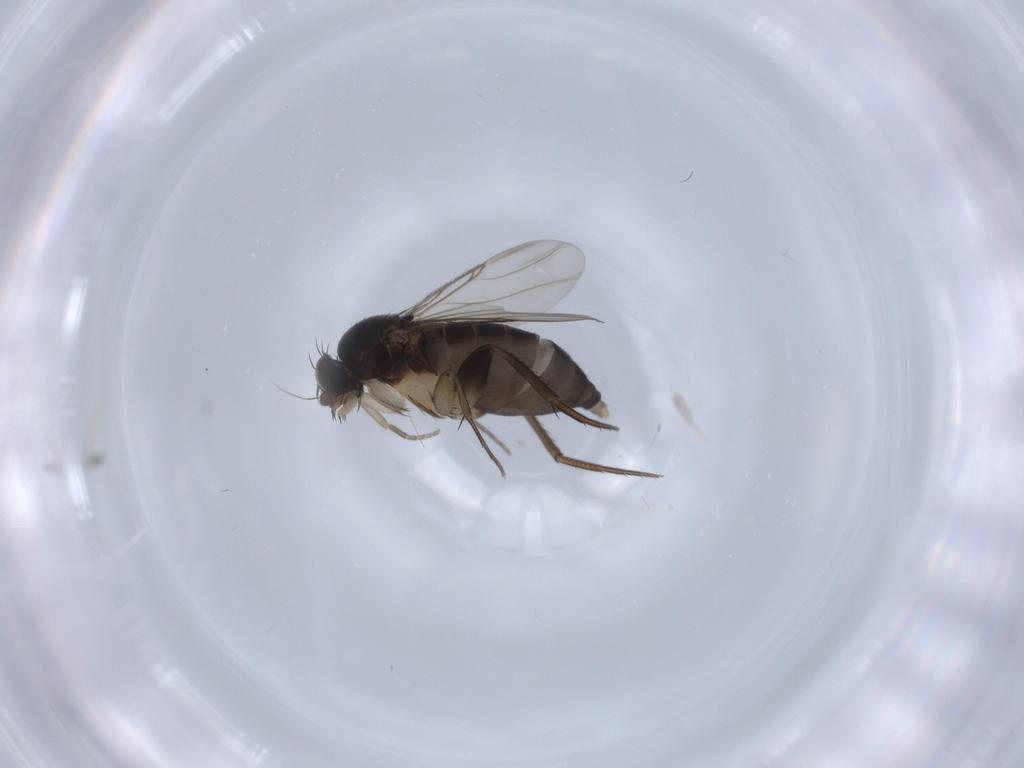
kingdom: Animalia
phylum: Arthropoda
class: Insecta
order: Diptera
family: Phoridae
